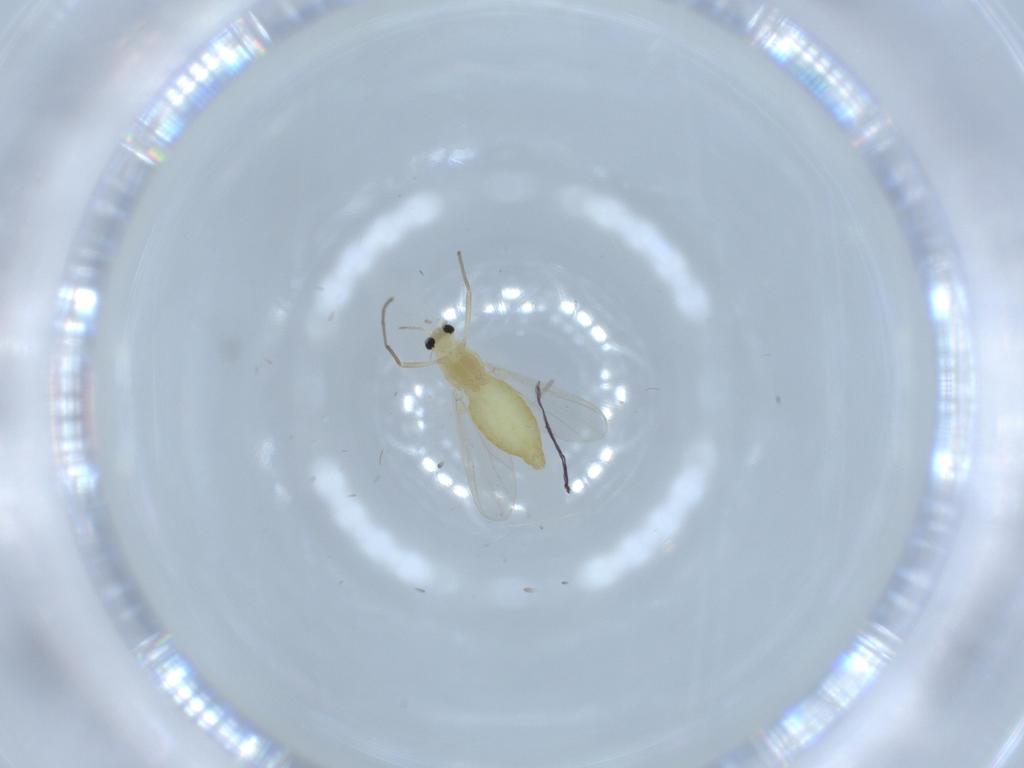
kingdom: Animalia
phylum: Arthropoda
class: Insecta
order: Diptera
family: Chironomidae
